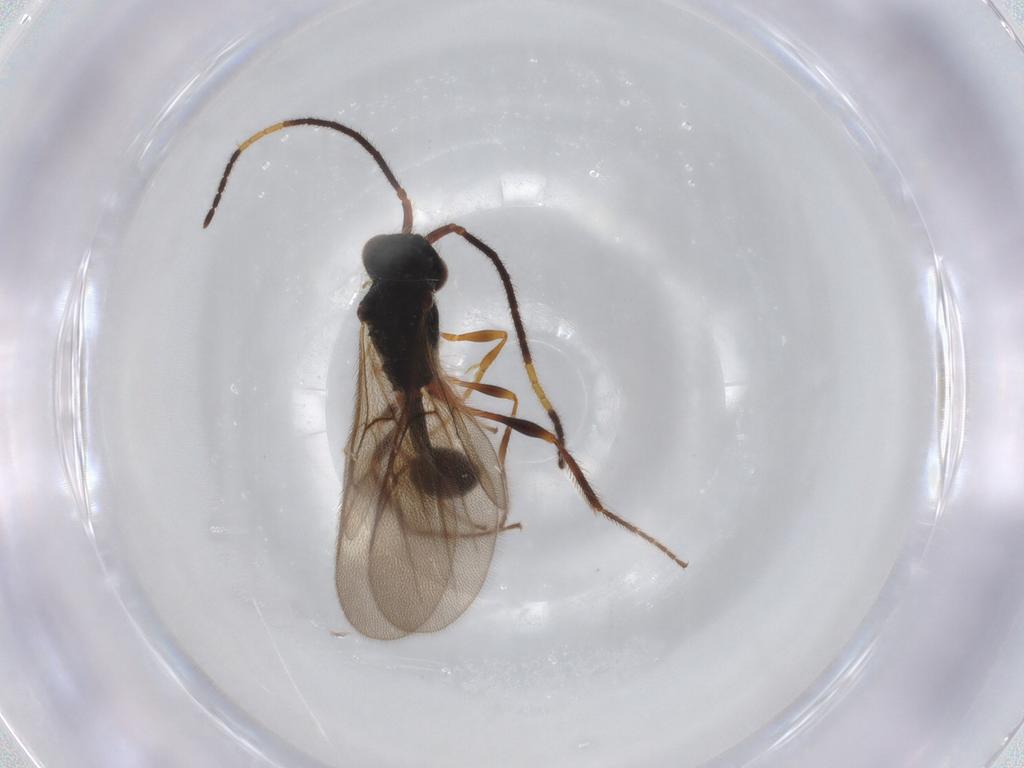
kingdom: Animalia
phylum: Arthropoda
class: Insecta
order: Hymenoptera
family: Diapriidae
